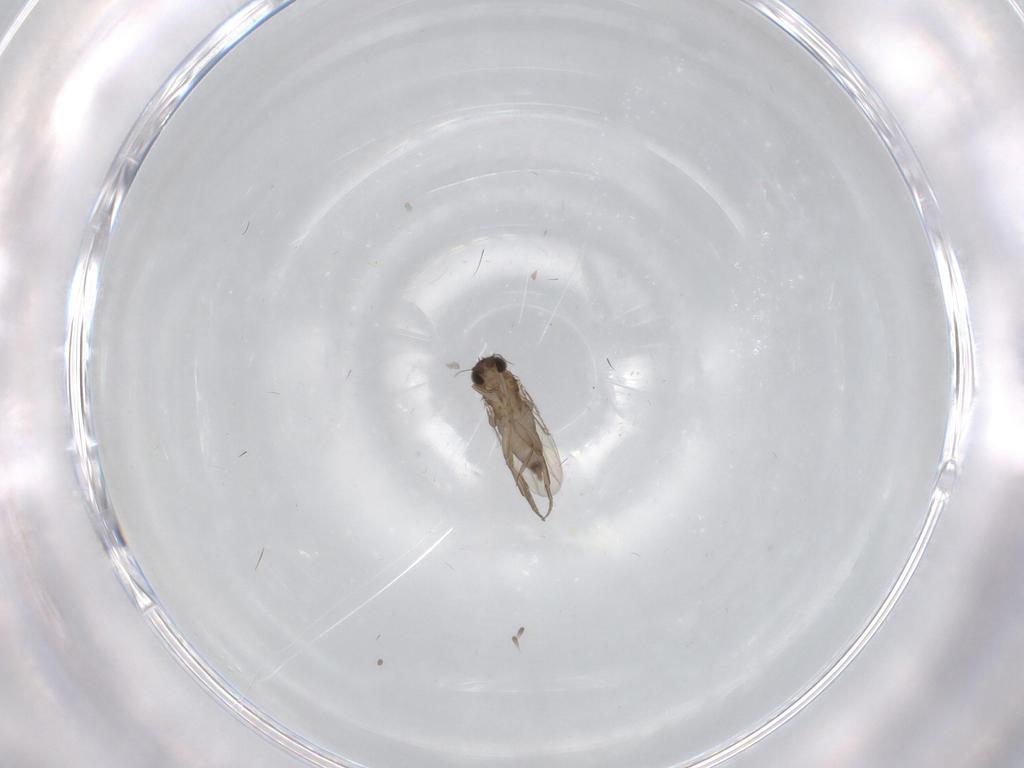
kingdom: Animalia
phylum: Arthropoda
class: Insecta
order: Diptera
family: Phoridae
